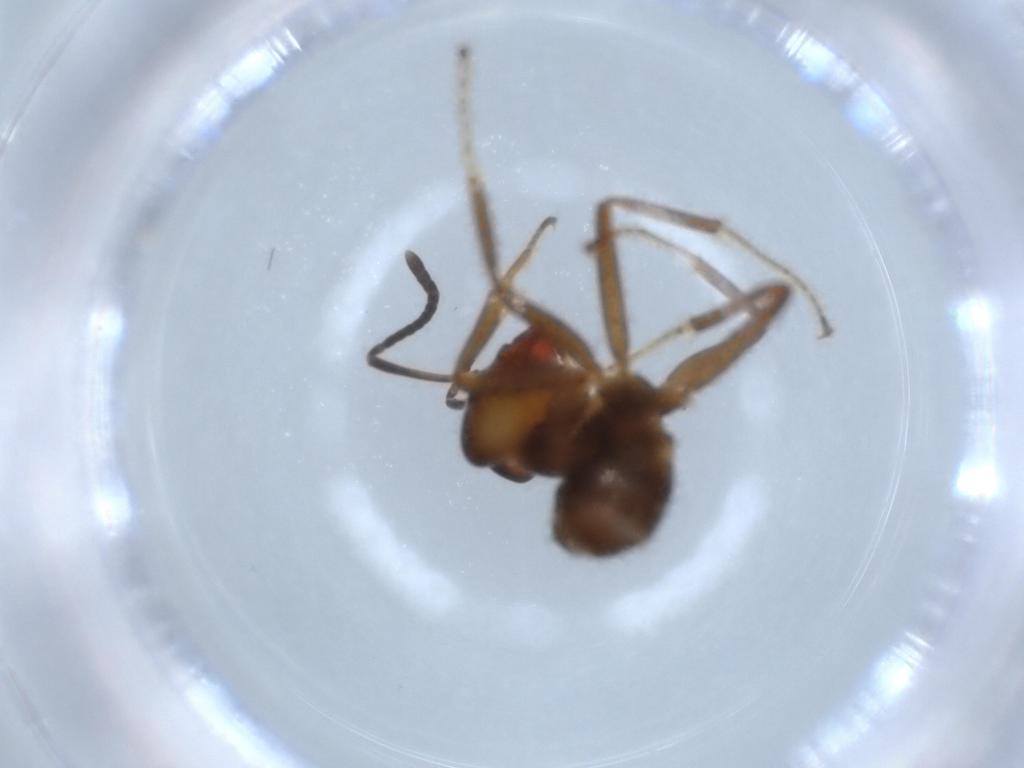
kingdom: Animalia
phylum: Arthropoda
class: Insecta
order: Hymenoptera
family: Formicidae
